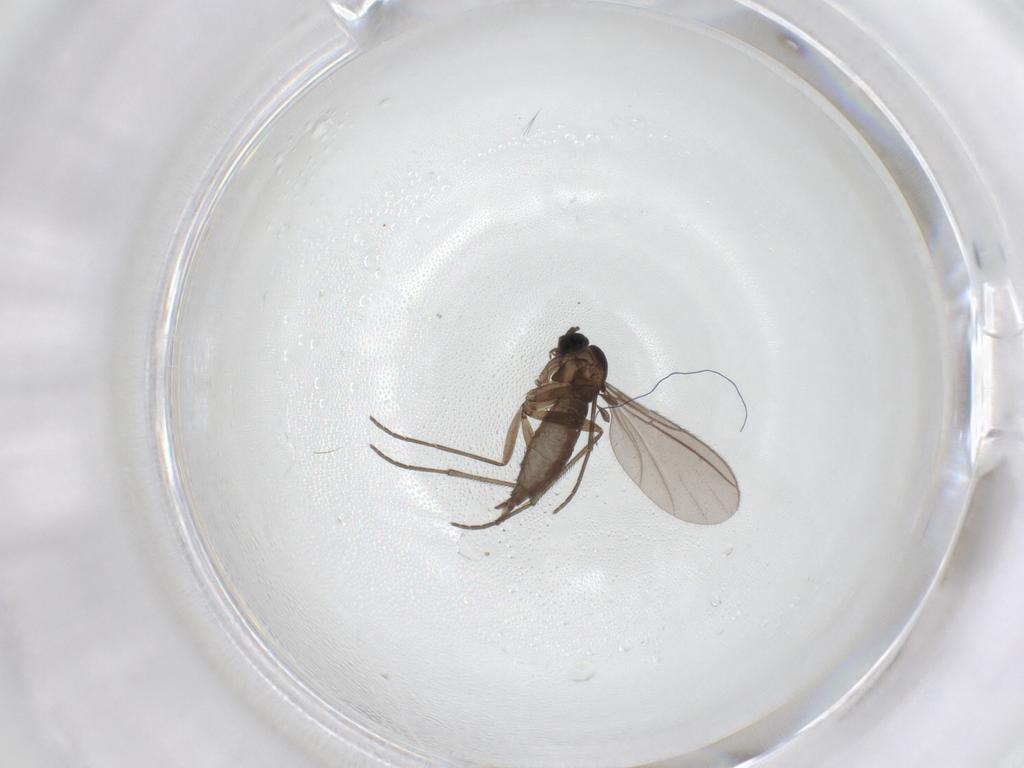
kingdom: Animalia
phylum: Arthropoda
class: Insecta
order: Diptera
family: Sciaridae
